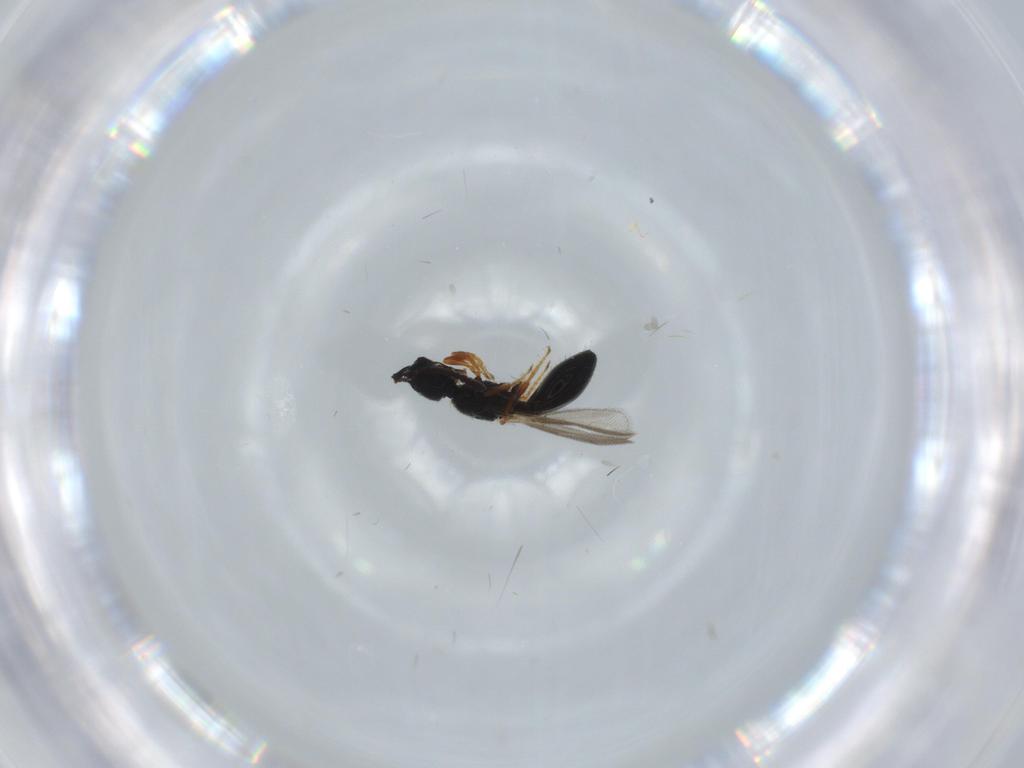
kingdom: Animalia
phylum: Arthropoda
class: Insecta
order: Hymenoptera
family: Diapriidae
